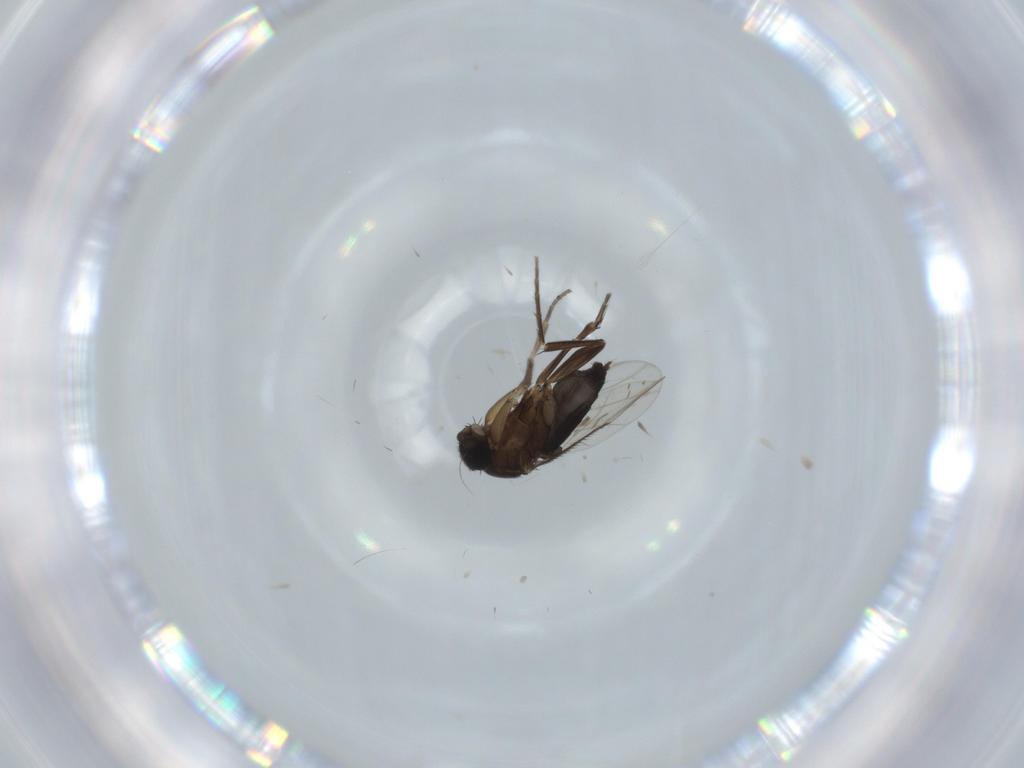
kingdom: Animalia
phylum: Arthropoda
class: Insecta
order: Diptera
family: Phoridae
